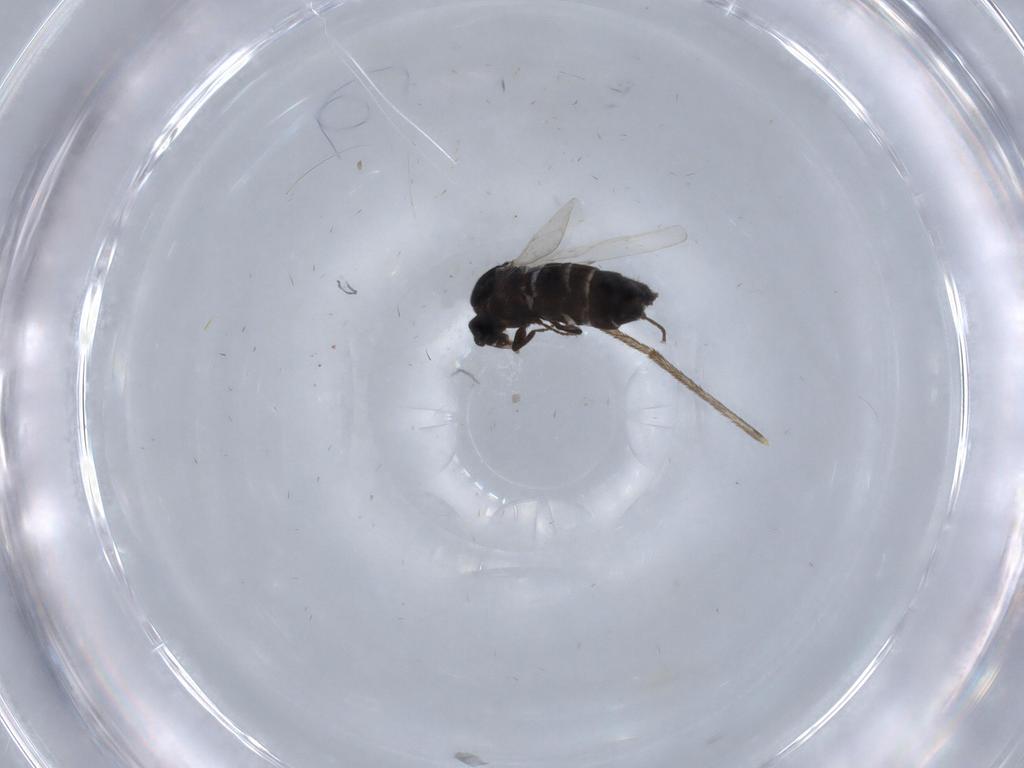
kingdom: Animalia
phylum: Arthropoda
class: Insecta
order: Diptera
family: Scatopsidae
